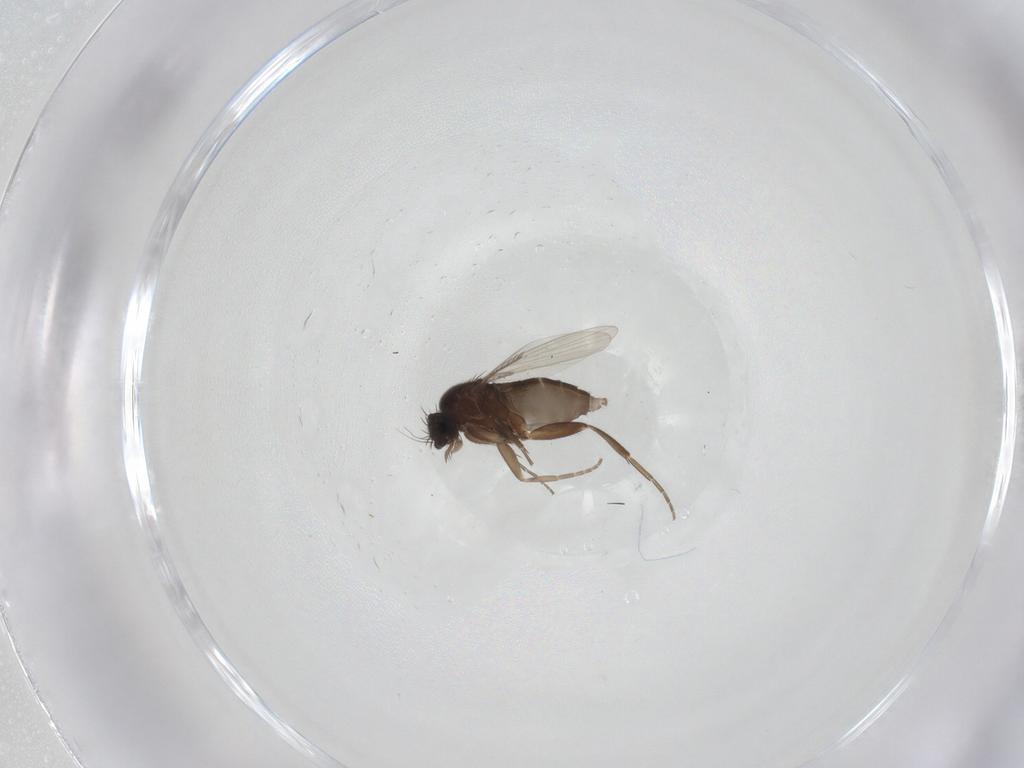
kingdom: Animalia
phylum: Arthropoda
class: Insecta
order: Diptera
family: Phoridae
